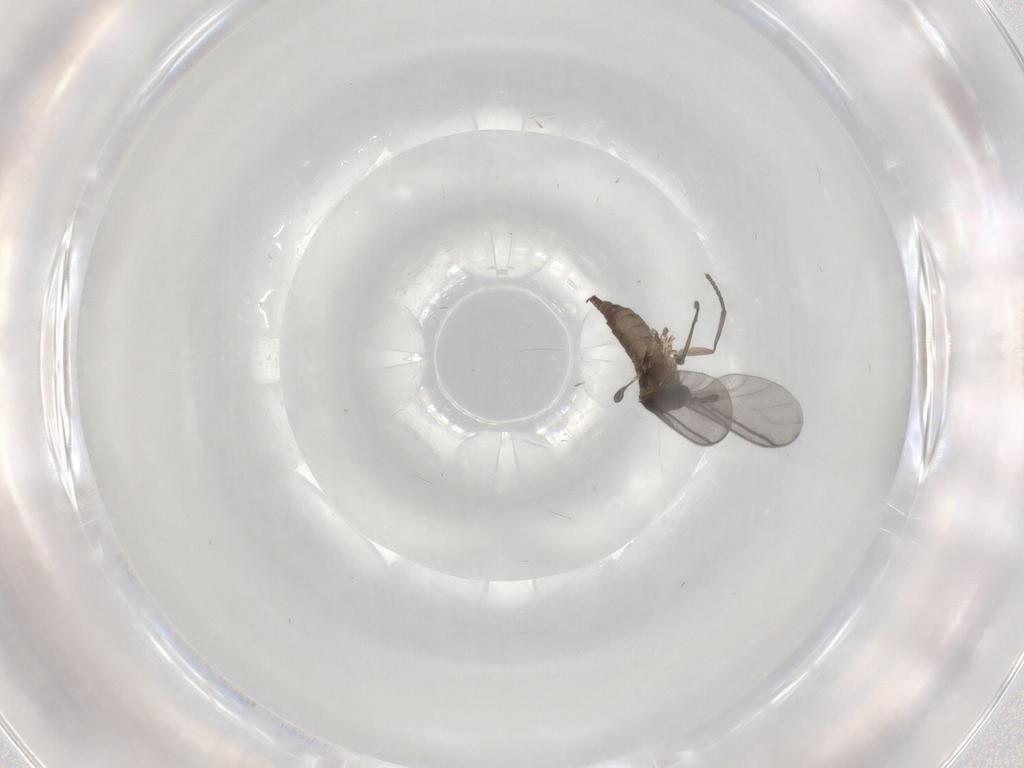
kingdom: Animalia
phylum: Arthropoda
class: Insecta
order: Diptera
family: Sciaridae
